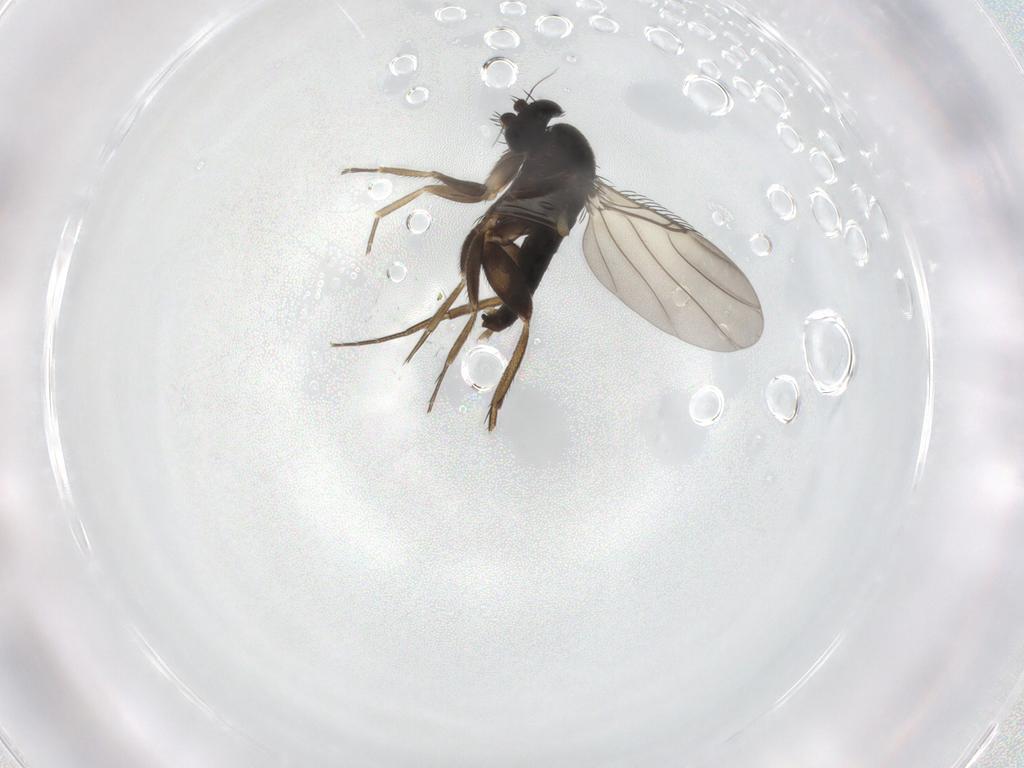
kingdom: Animalia
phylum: Arthropoda
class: Insecta
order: Diptera
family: Phoridae
